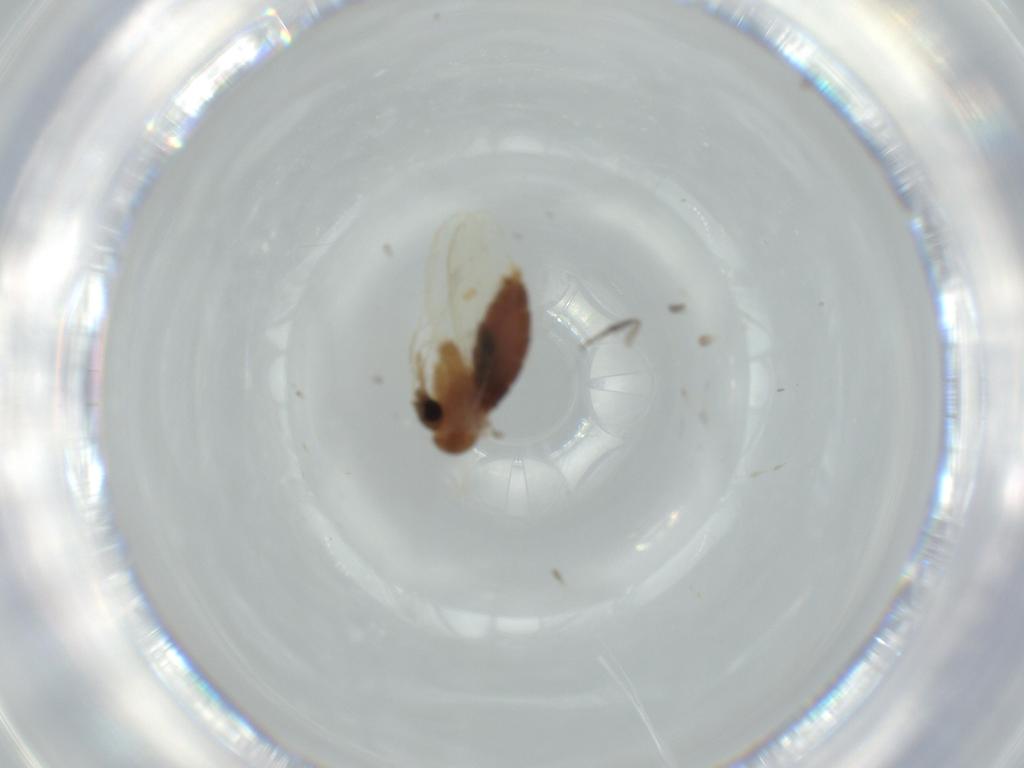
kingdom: Animalia
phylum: Arthropoda
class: Insecta
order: Diptera
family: Psychodidae
